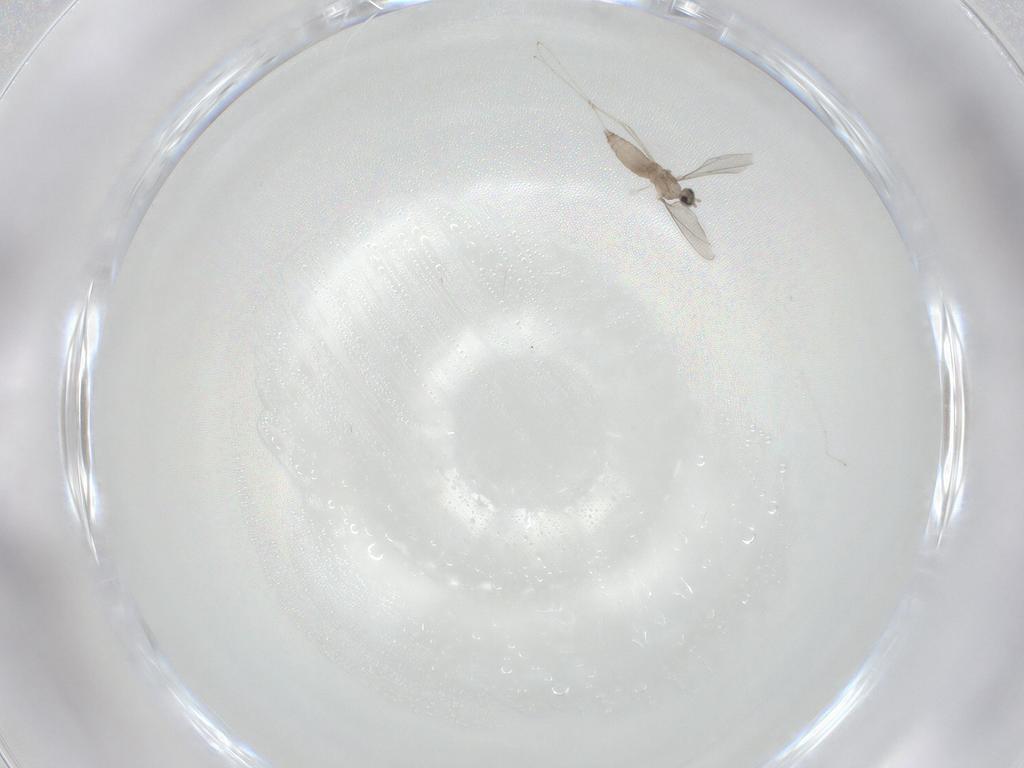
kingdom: Animalia
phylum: Arthropoda
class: Insecta
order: Diptera
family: Cecidomyiidae
